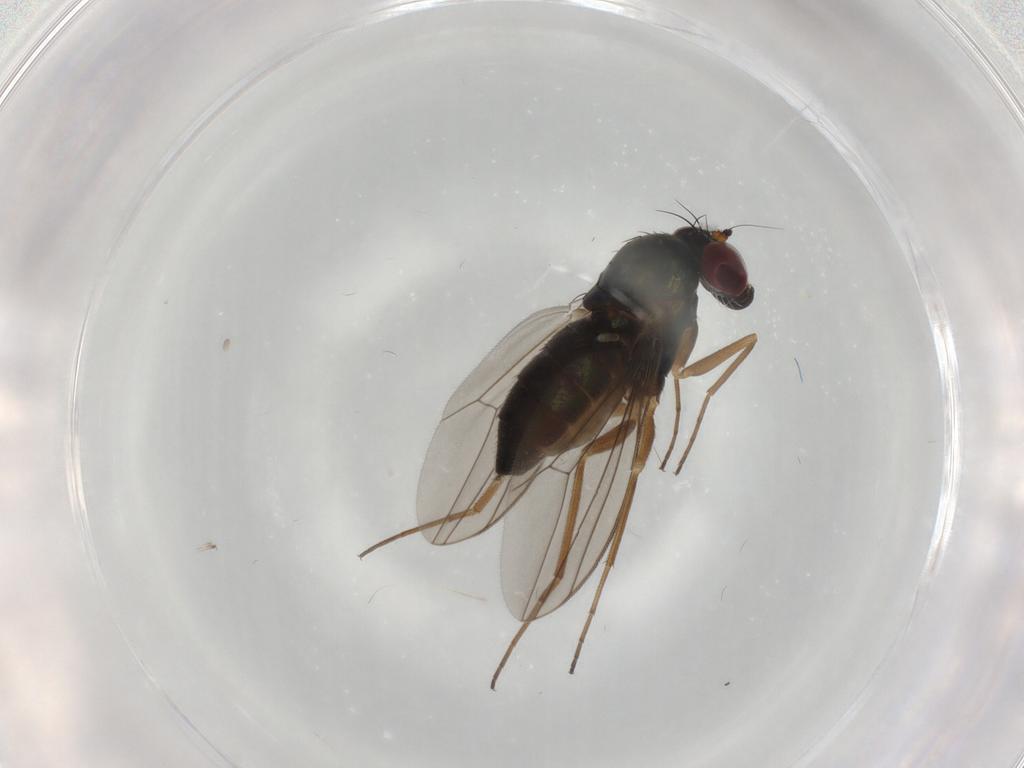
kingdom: Animalia
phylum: Arthropoda
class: Insecta
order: Diptera
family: Dolichopodidae
